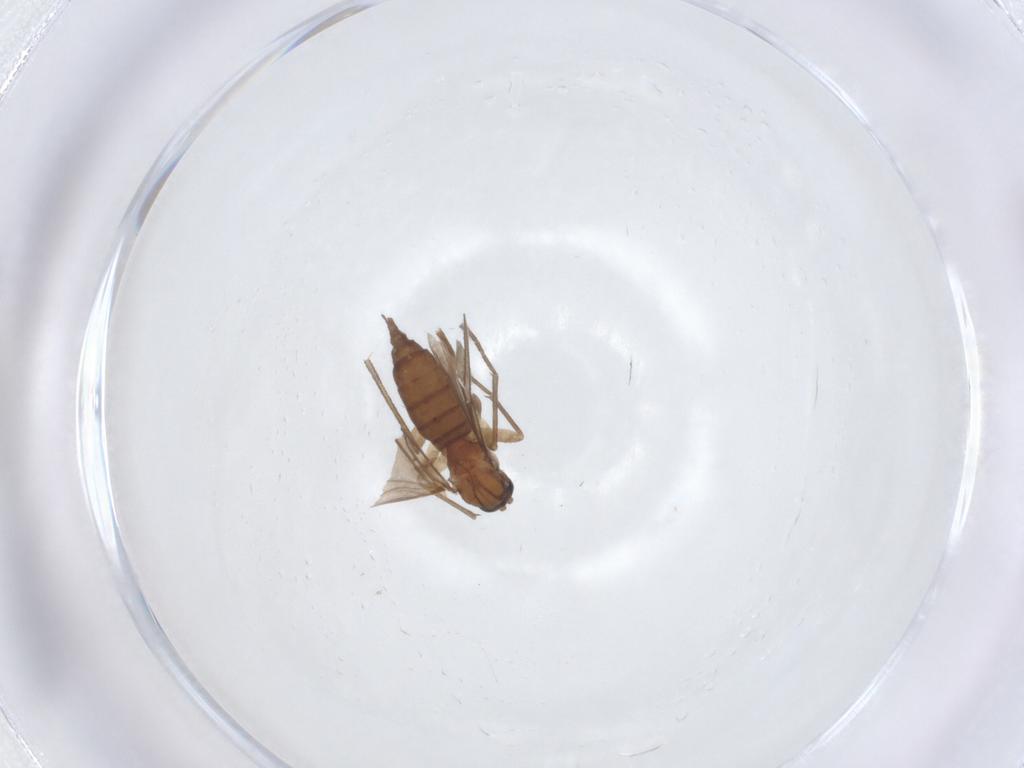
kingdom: Animalia
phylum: Arthropoda
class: Insecta
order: Diptera
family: Sciaridae
